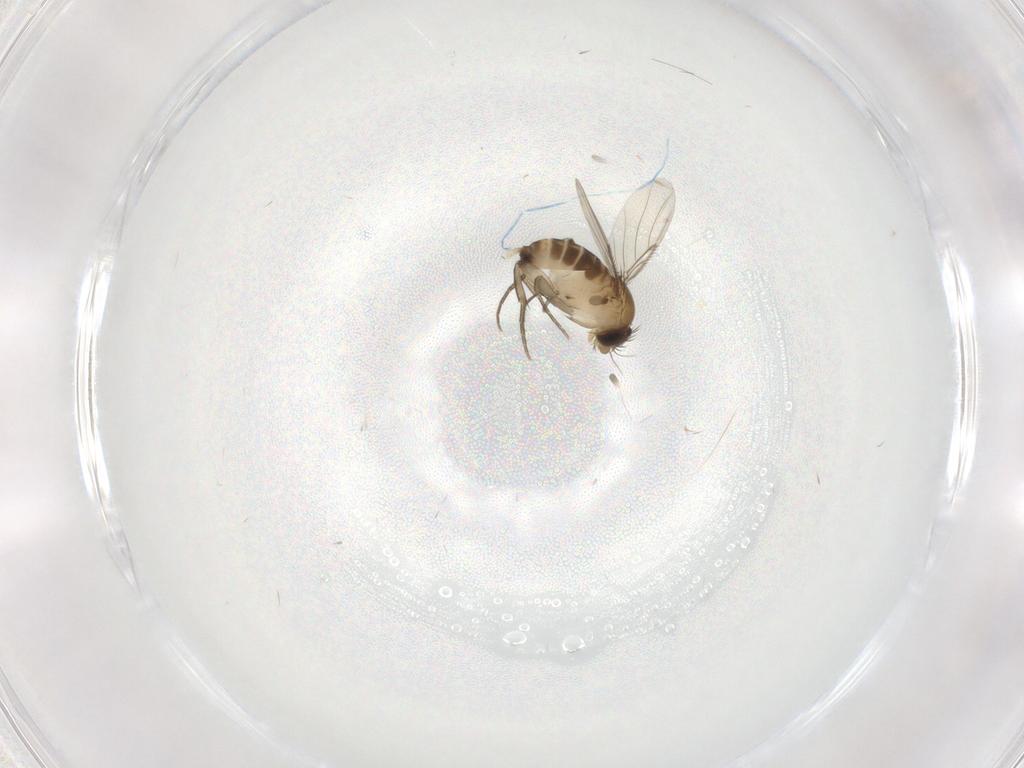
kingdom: Animalia
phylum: Arthropoda
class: Insecta
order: Diptera
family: Phoridae
